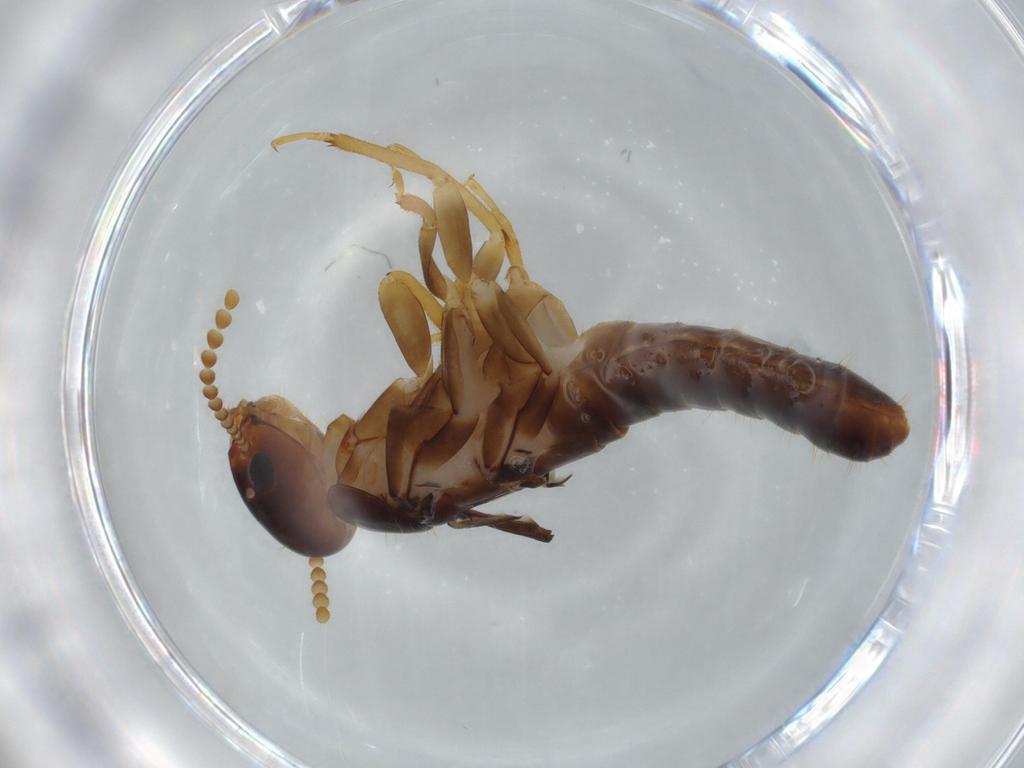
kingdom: Animalia
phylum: Arthropoda
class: Insecta
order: Blattodea
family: Kalotermitidae
